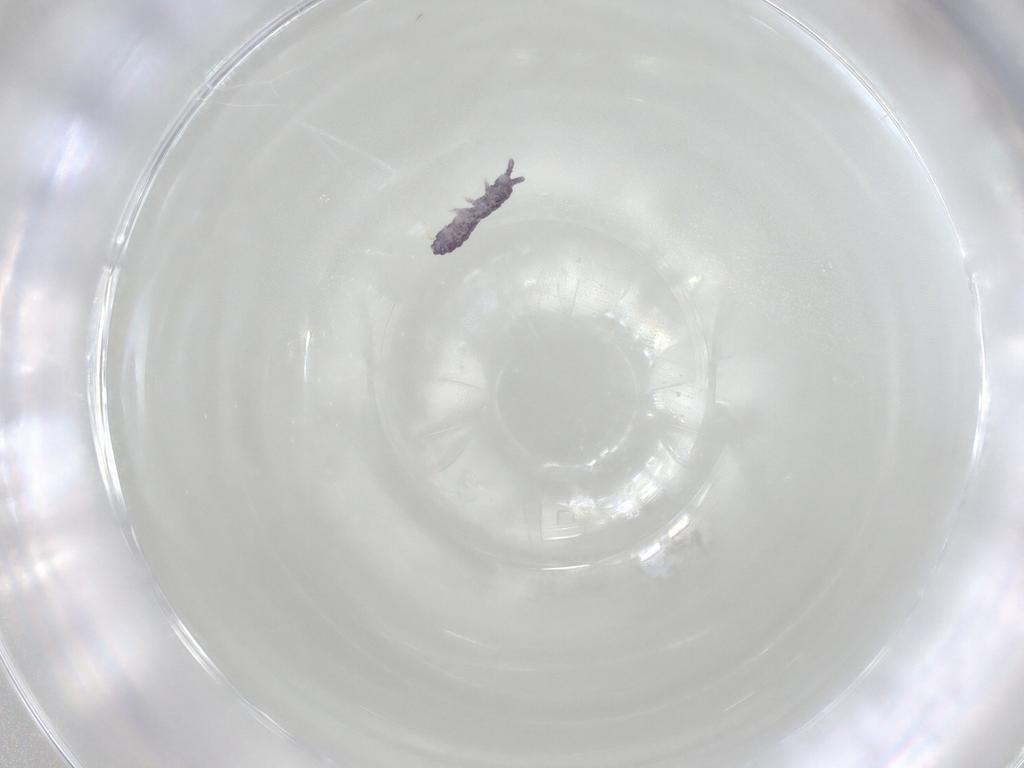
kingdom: Animalia
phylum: Arthropoda
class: Collembola
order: Poduromorpha
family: Brachystomellidae
